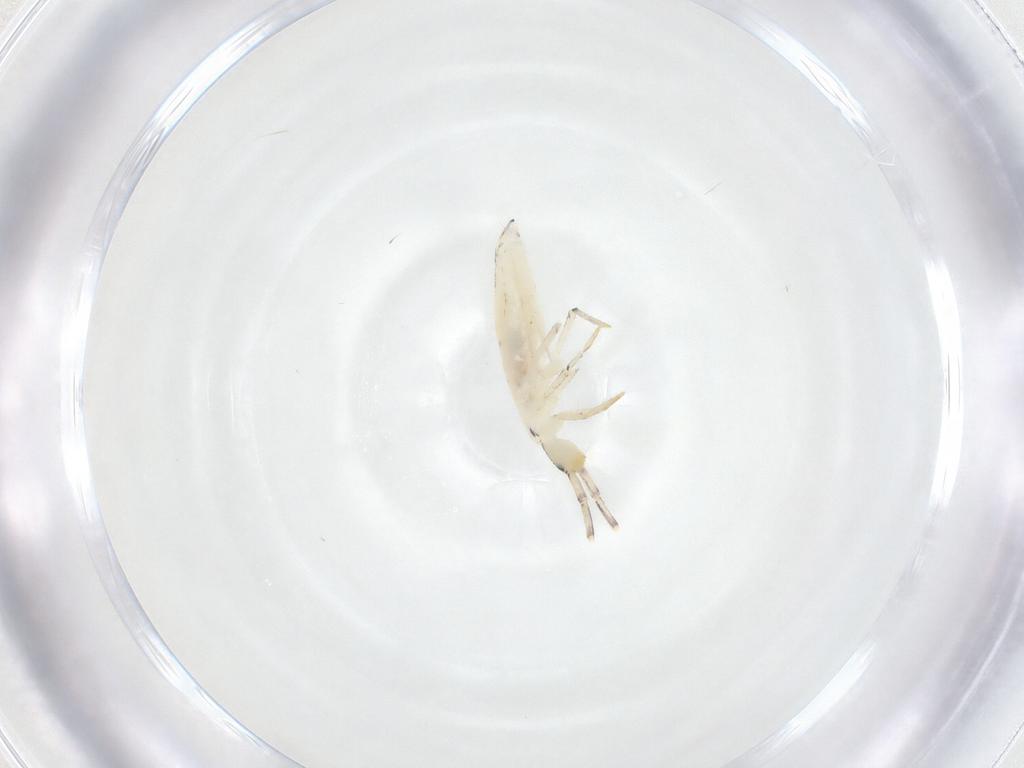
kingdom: Animalia
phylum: Arthropoda
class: Collembola
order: Entomobryomorpha
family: Entomobryidae
